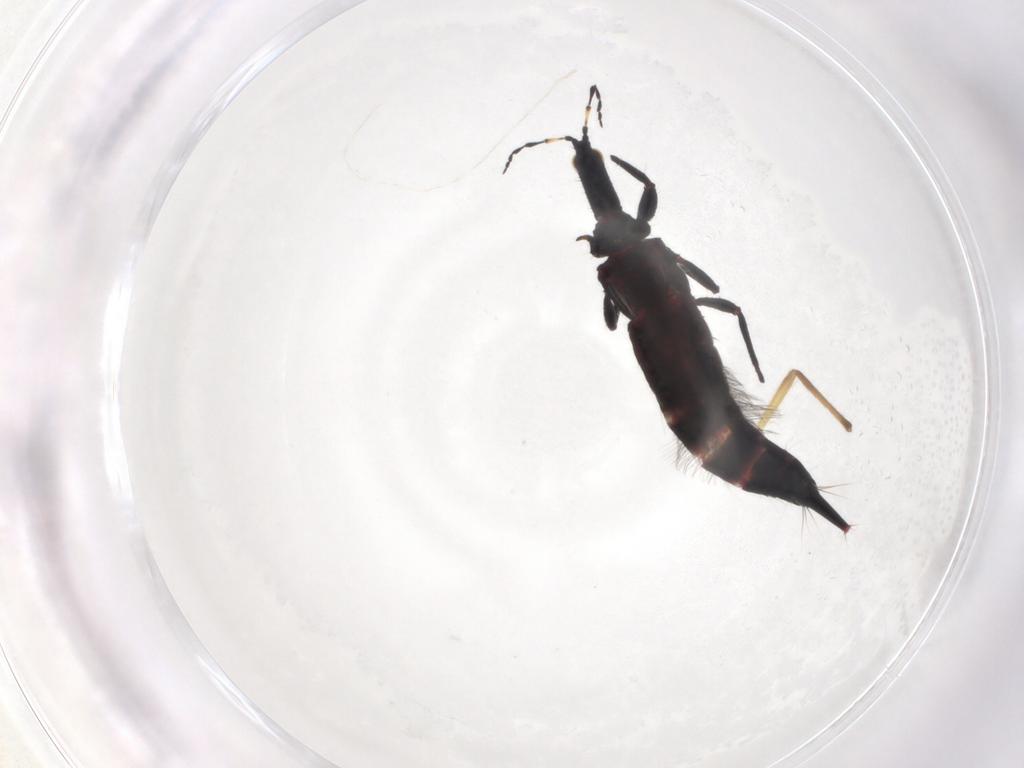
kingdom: Animalia
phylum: Arthropoda
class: Insecta
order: Thysanoptera
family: Phlaeothripidae
